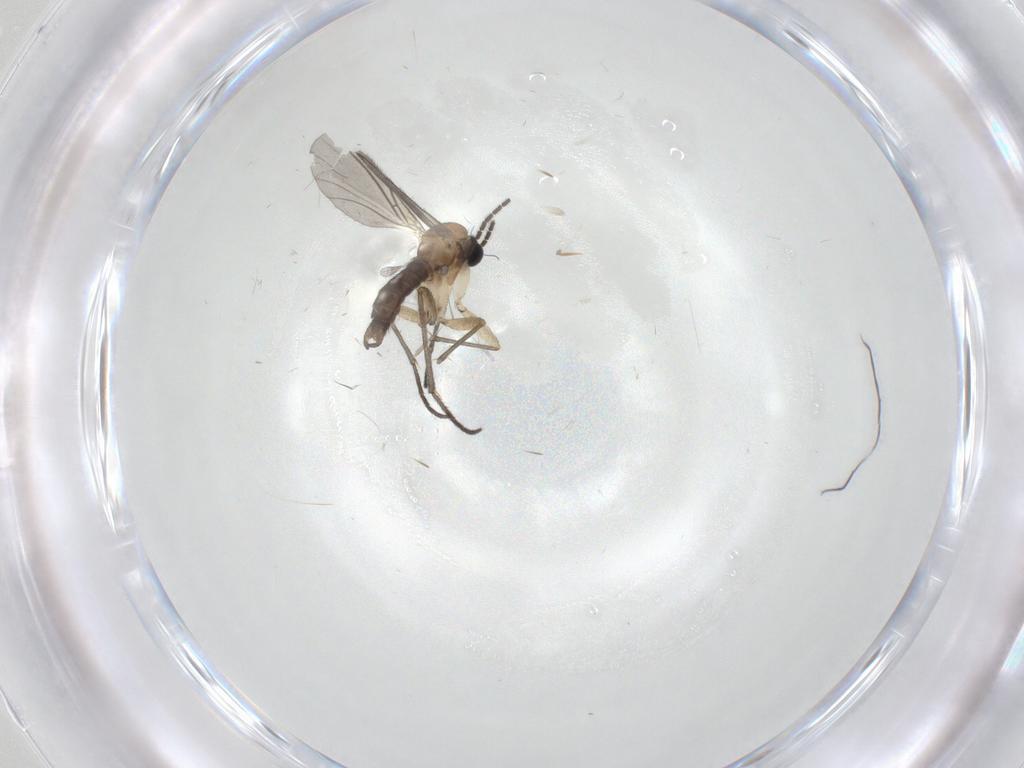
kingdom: Animalia
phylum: Arthropoda
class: Insecta
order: Diptera
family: Sciaridae
